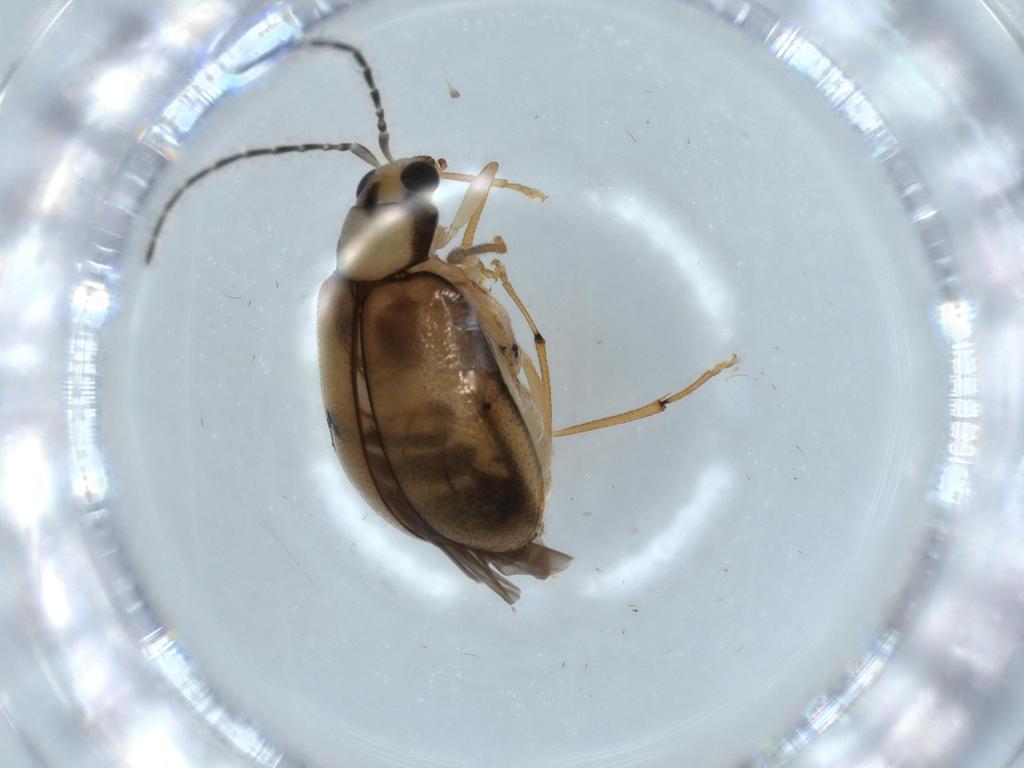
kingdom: Animalia
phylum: Arthropoda
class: Insecta
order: Coleoptera
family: Chrysomelidae
